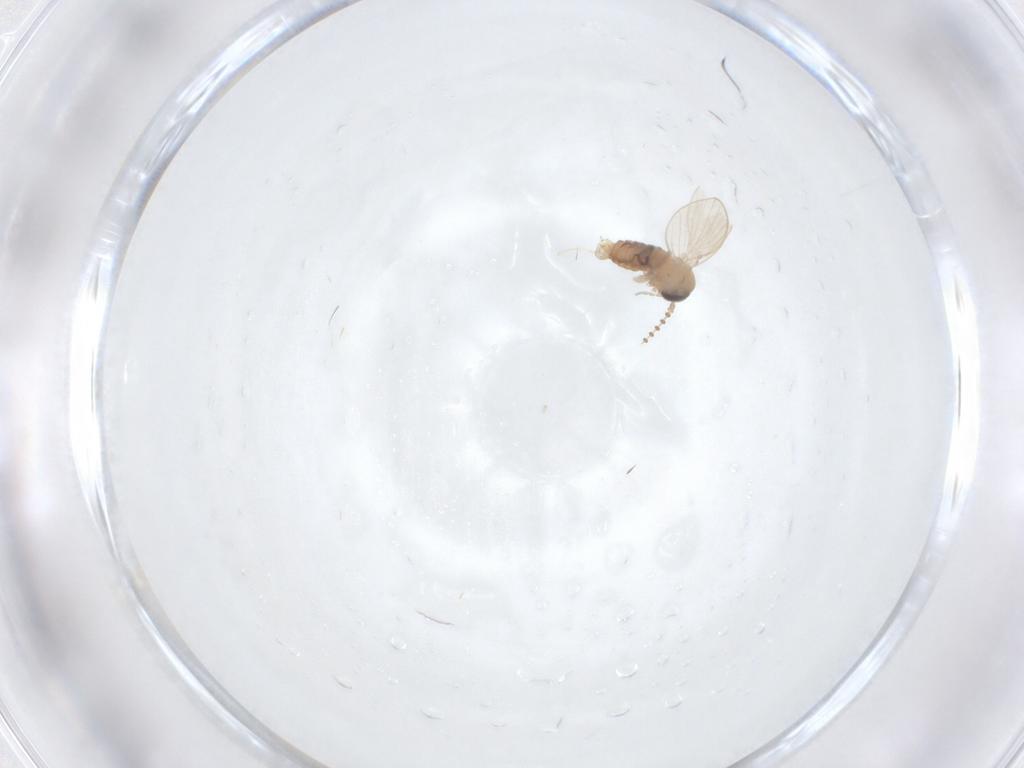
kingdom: Animalia
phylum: Arthropoda
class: Insecta
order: Diptera
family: Psychodidae
